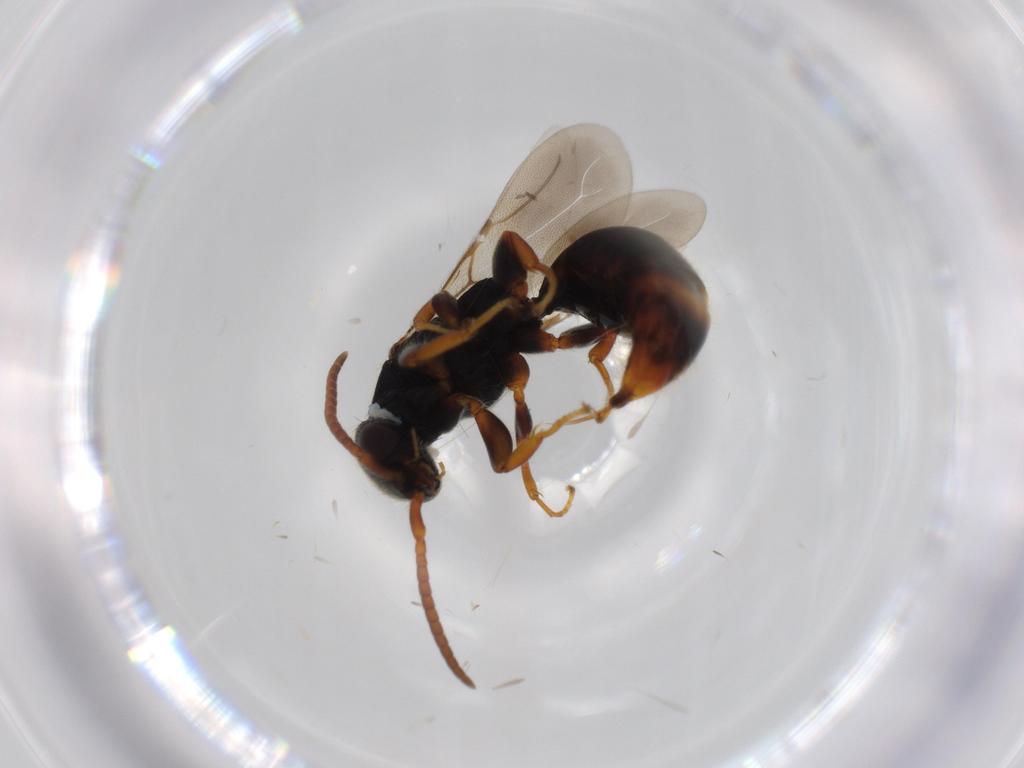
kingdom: Animalia
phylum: Arthropoda
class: Insecta
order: Hymenoptera
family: Bethylidae
